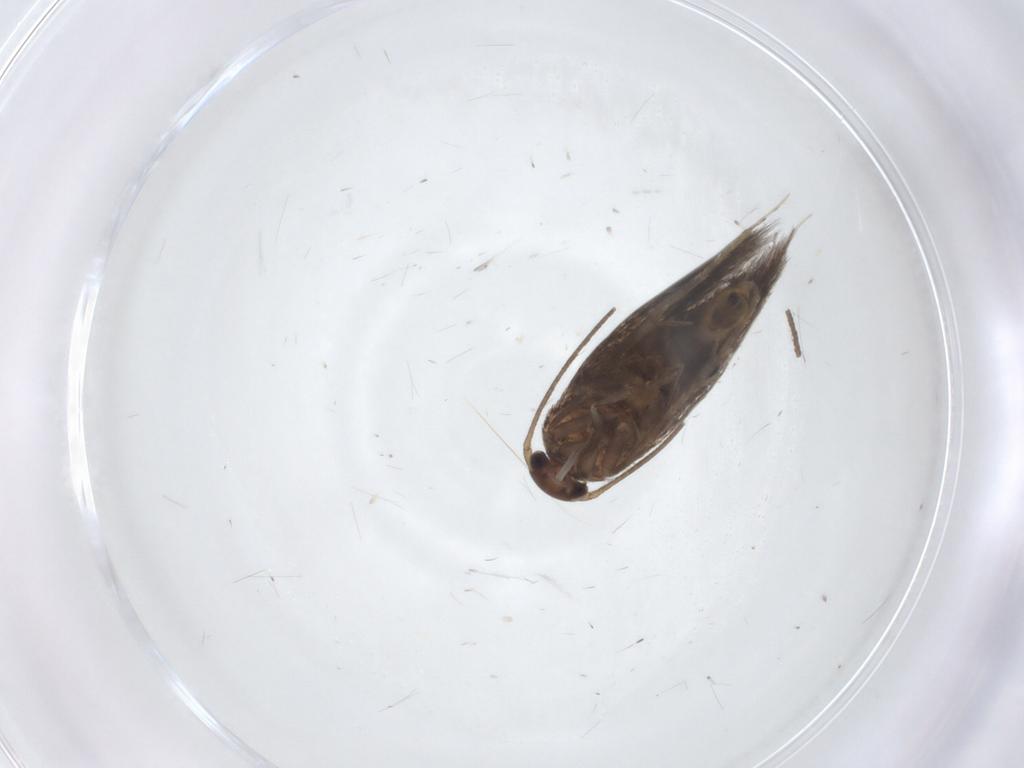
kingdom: Animalia
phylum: Arthropoda
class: Insecta
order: Lepidoptera
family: Elachistidae
